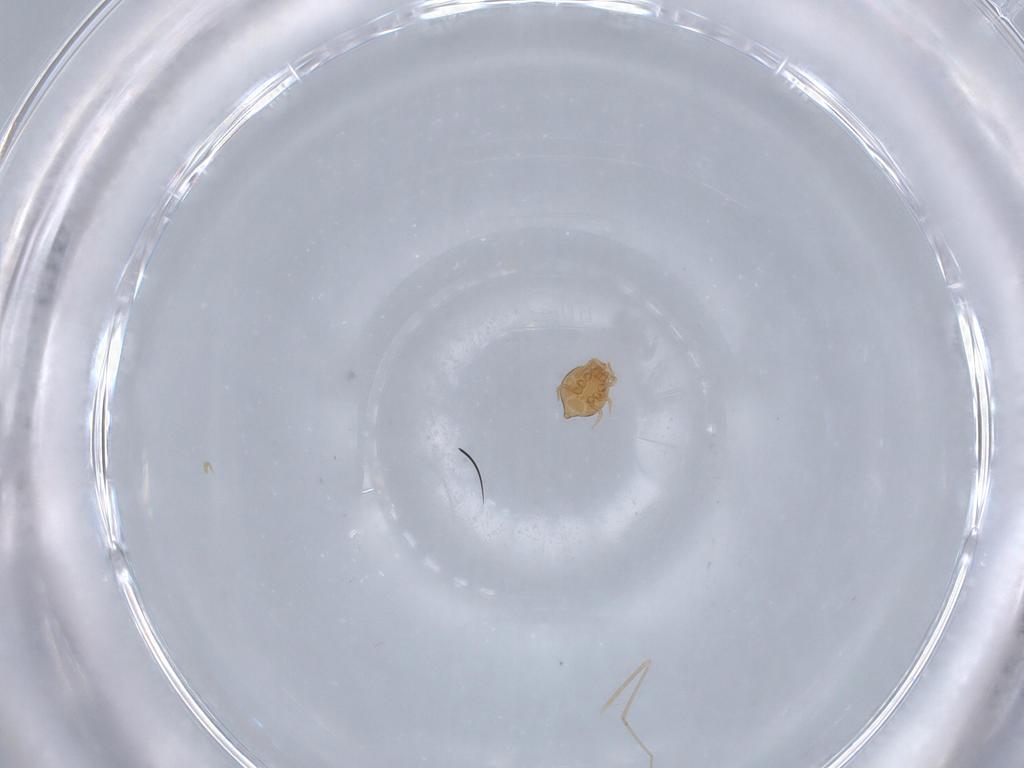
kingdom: Animalia
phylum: Arthropoda
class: Arachnida
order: Mesostigmata
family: Polyaspididae
